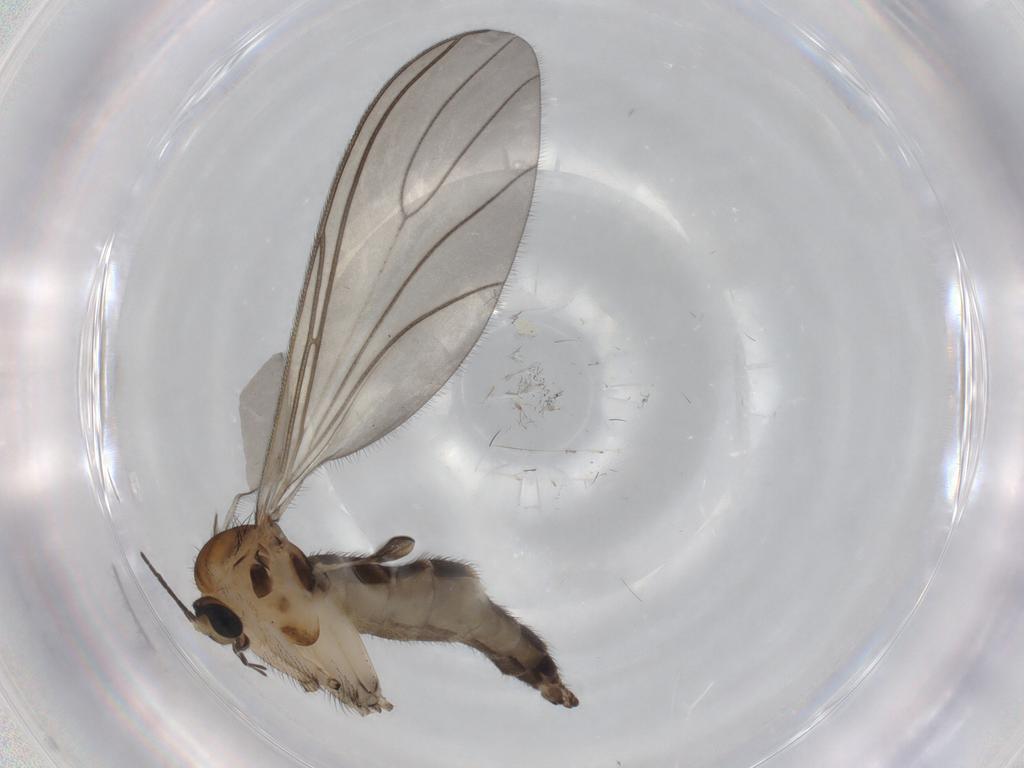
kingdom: Animalia
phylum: Arthropoda
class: Insecta
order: Diptera
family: Sciaridae
